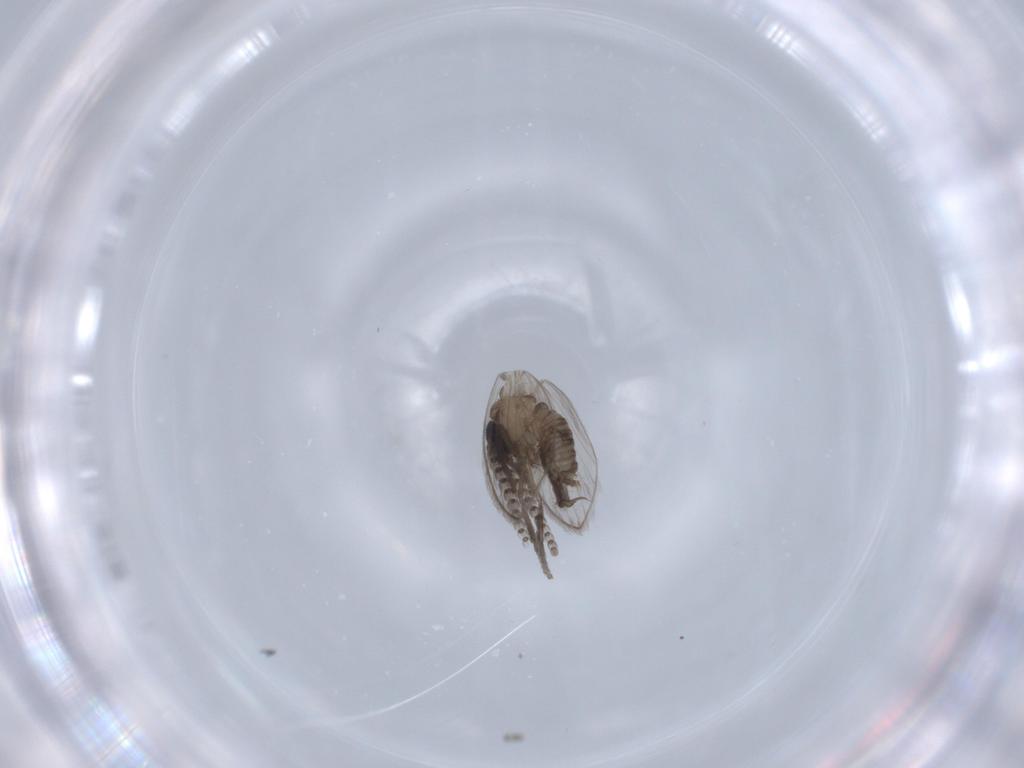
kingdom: Animalia
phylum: Arthropoda
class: Insecta
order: Diptera
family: Psychodidae
